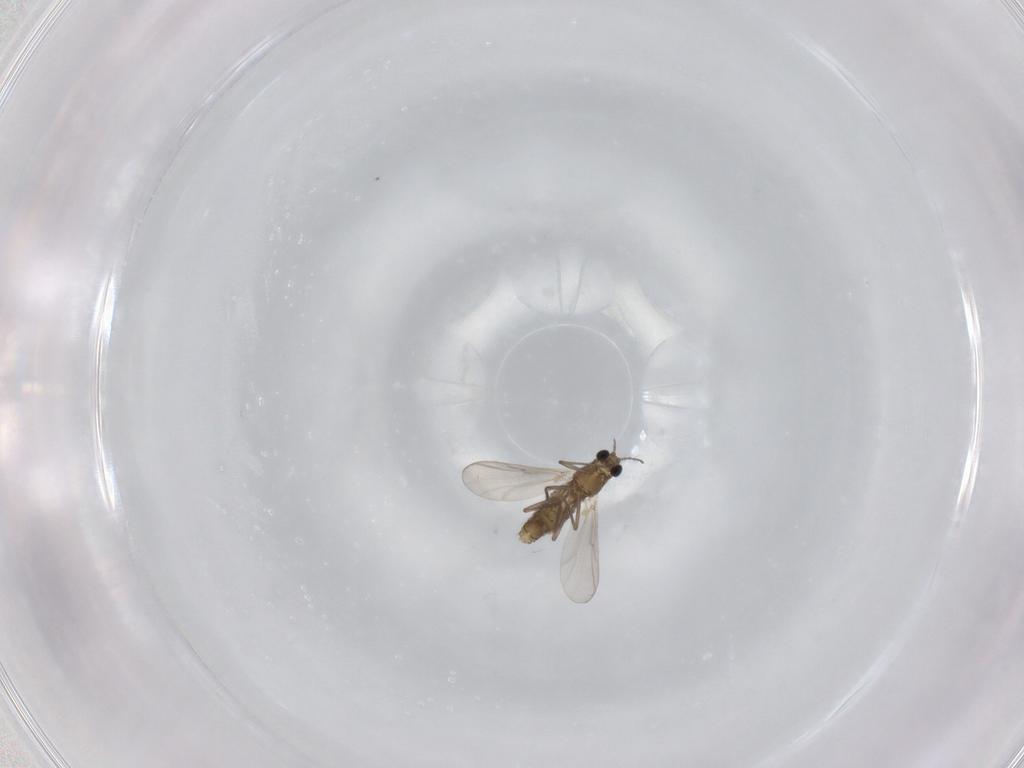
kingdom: Animalia
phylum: Arthropoda
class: Insecta
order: Diptera
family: Chironomidae
